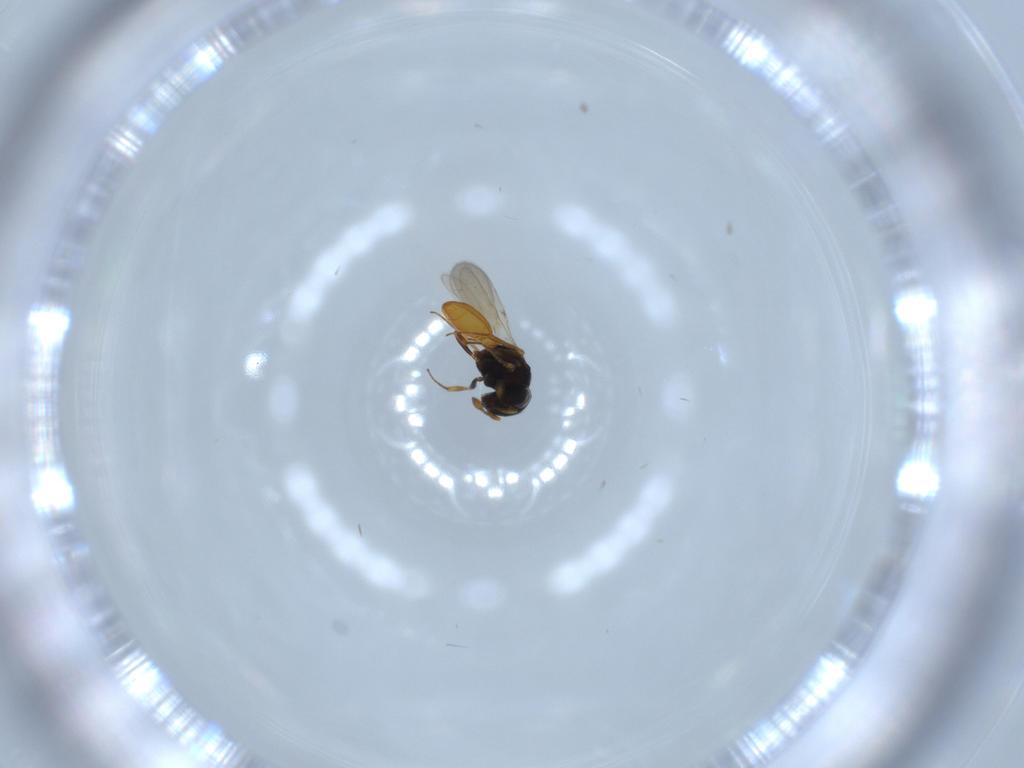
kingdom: Animalia
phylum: Arthropoda
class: Insecta
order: Hymenoptera
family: Scelionidae
